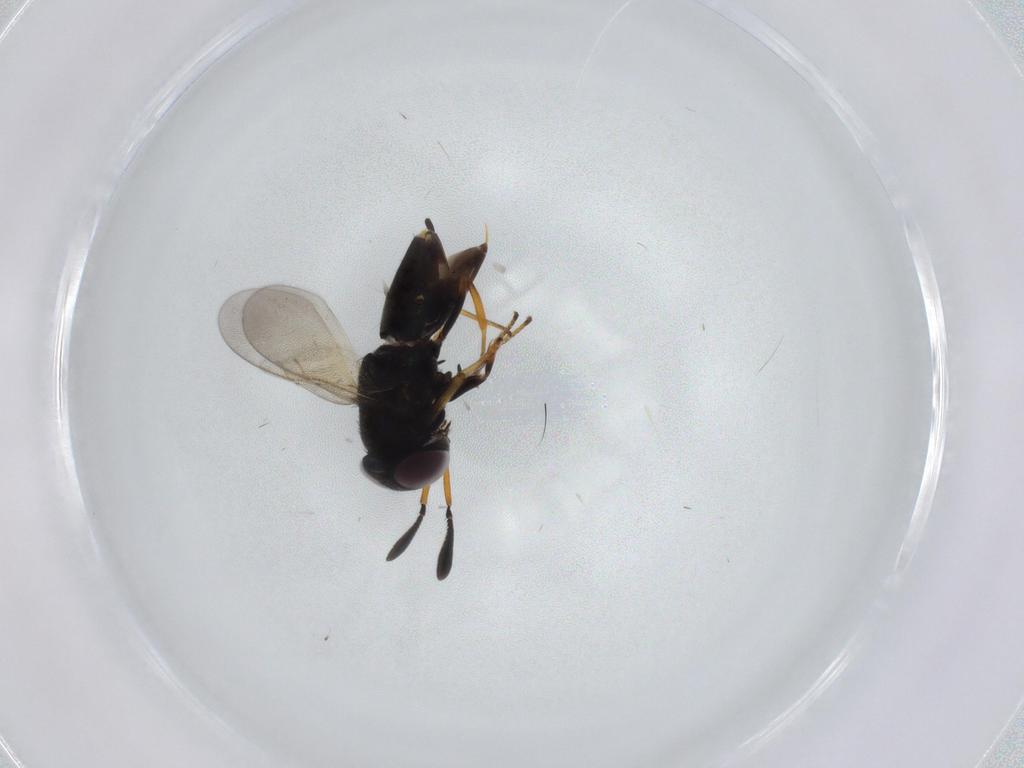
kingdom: Animalia
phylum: Arthropoda
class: Insecta
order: Hymenoptera
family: Encyrtidae
